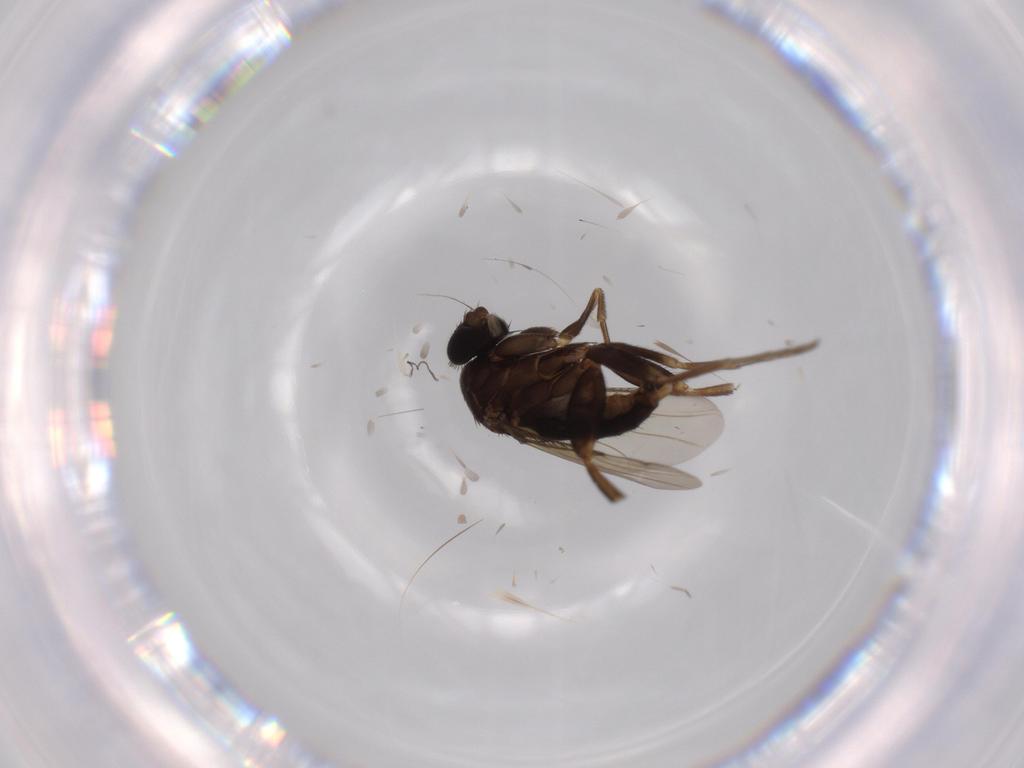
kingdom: Animalia
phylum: Arthropoda
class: Insecta
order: Diptera
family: Phoridae
